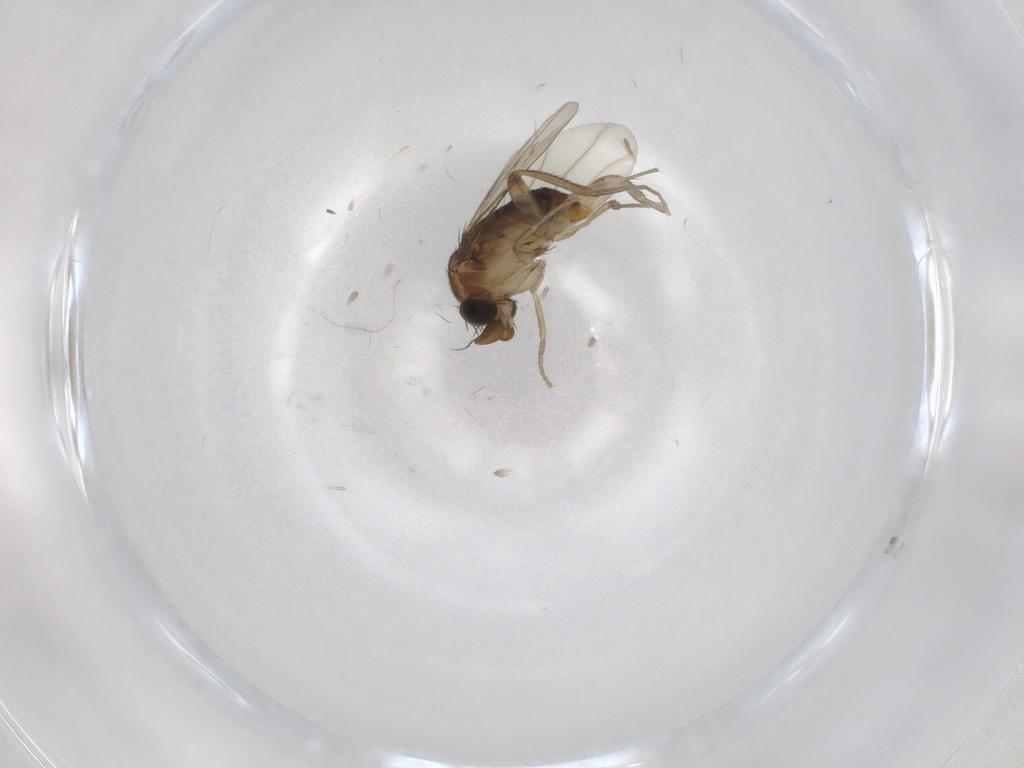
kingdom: Animalia
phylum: Arthropoda
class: Insecta
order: Diptera
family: Phoridae
